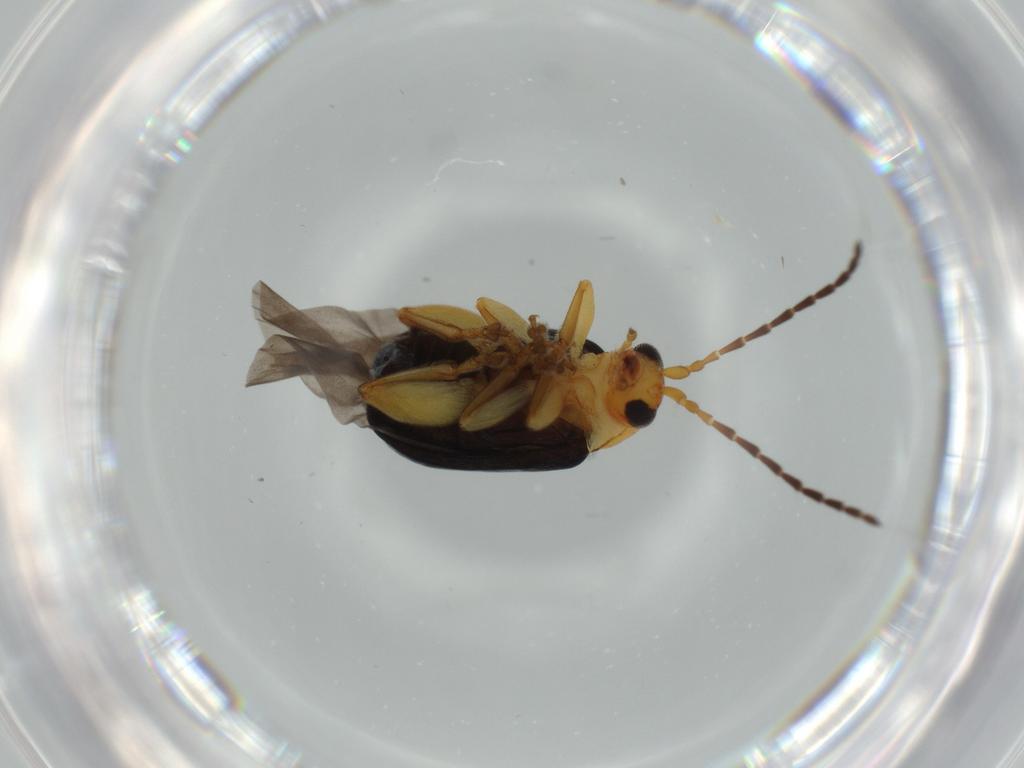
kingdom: Animalia
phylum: Arthropoda
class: Insecta
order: Coleoptera
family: Chrysomelidae
